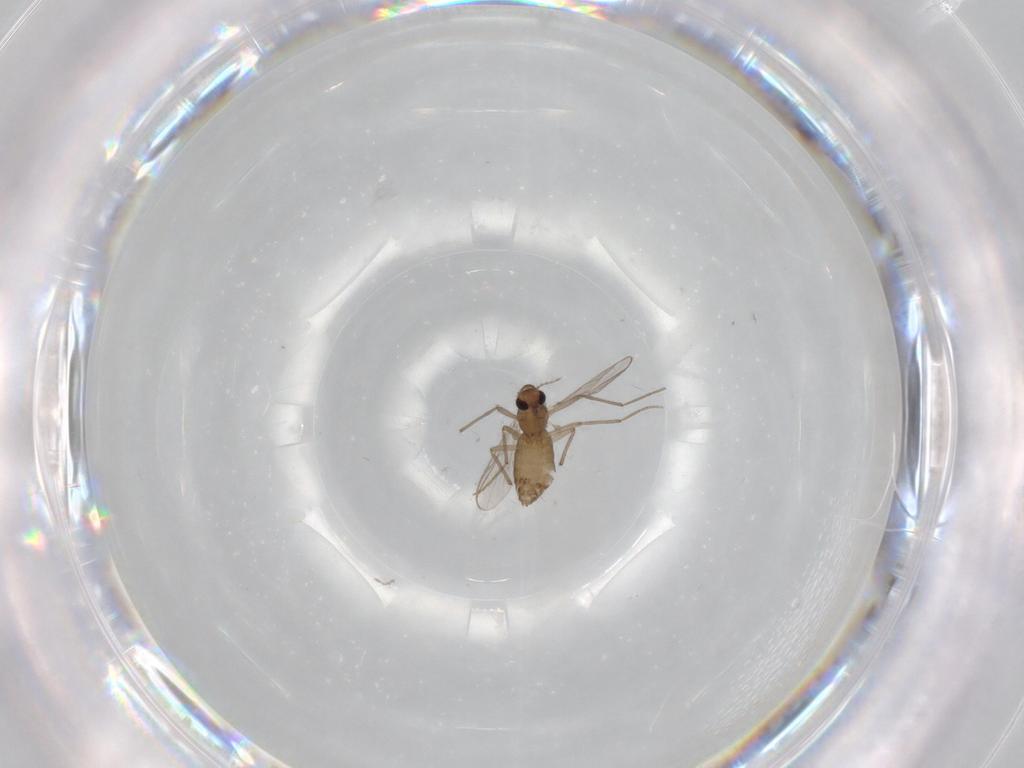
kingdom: Animalia
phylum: Arthropoda
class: Insecta
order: Diptera
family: Chironomidae
